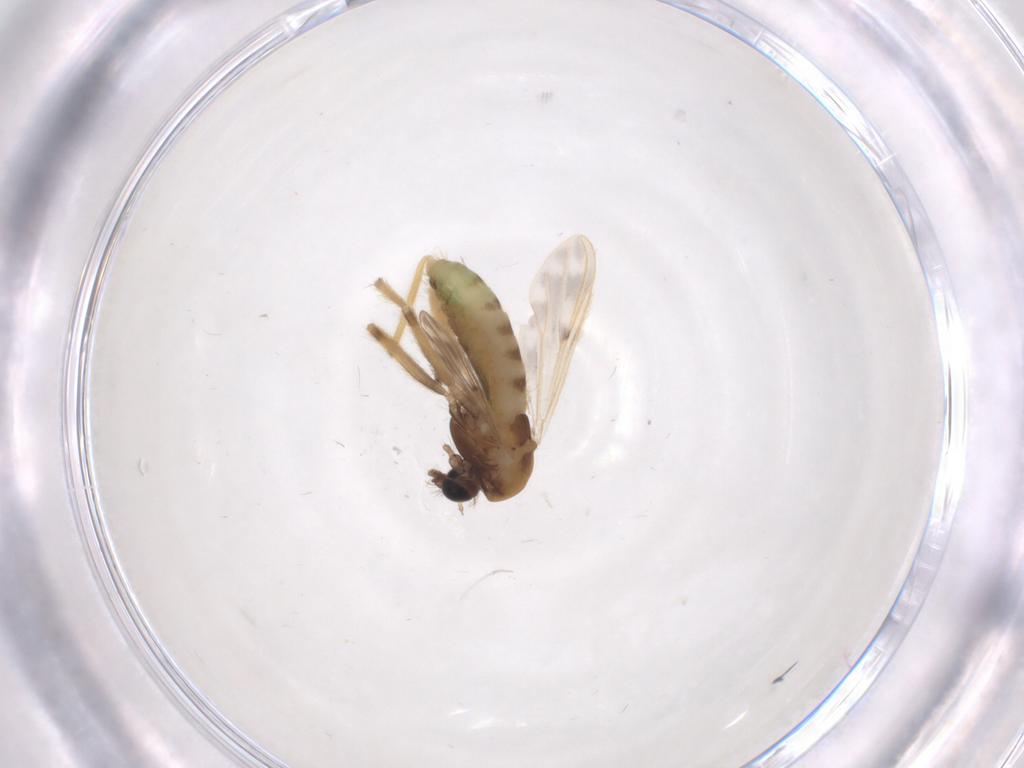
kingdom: Animalia
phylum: Arthropoda
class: Insecta
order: Diptera
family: Chironomidae
